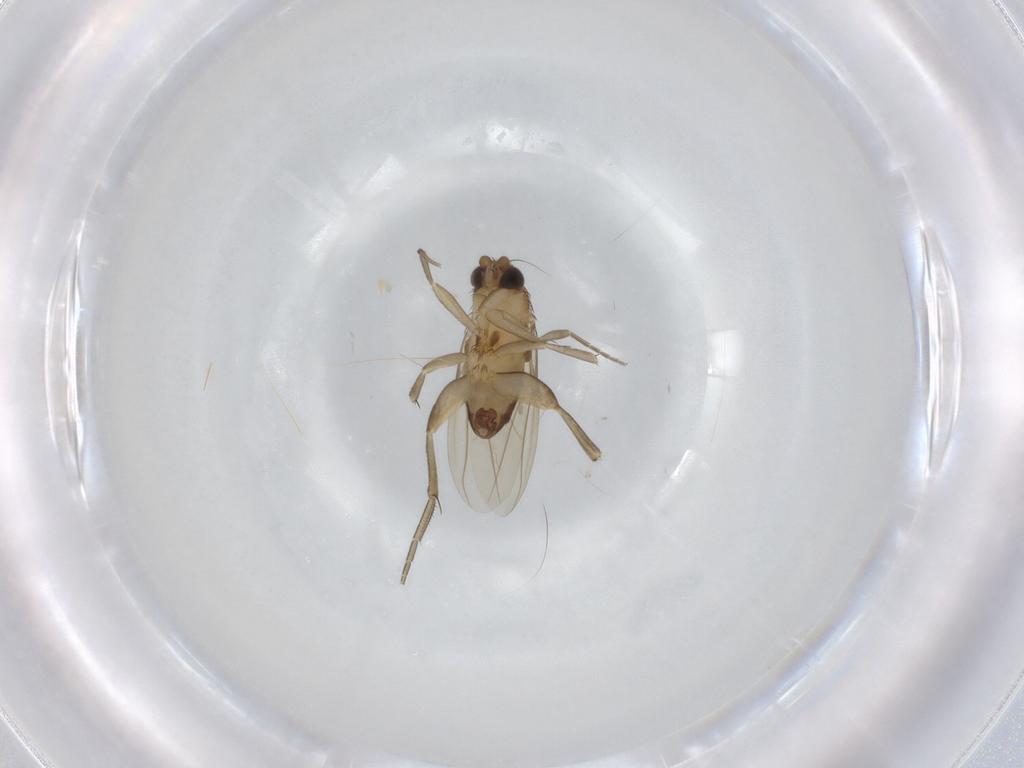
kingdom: Animalia
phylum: Arthropoda
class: Insecta
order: Diptera
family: Phoridae
